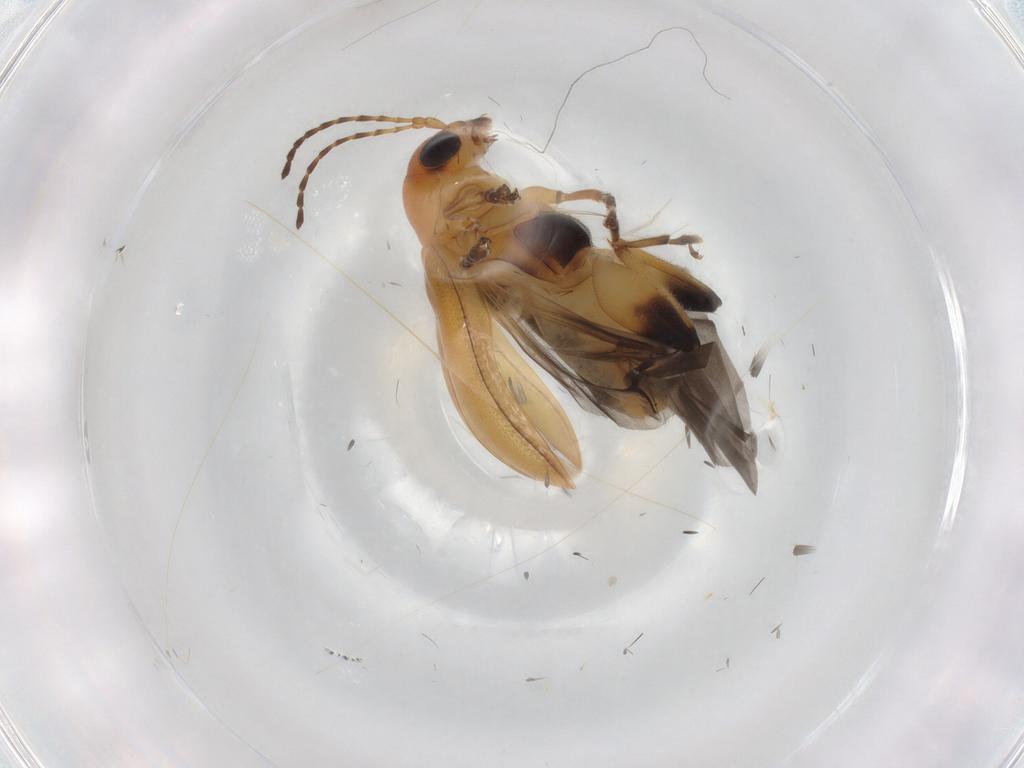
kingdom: Animalia
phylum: Arthropoda
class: Insecta
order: Coleoptera
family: Chrysomelidae
